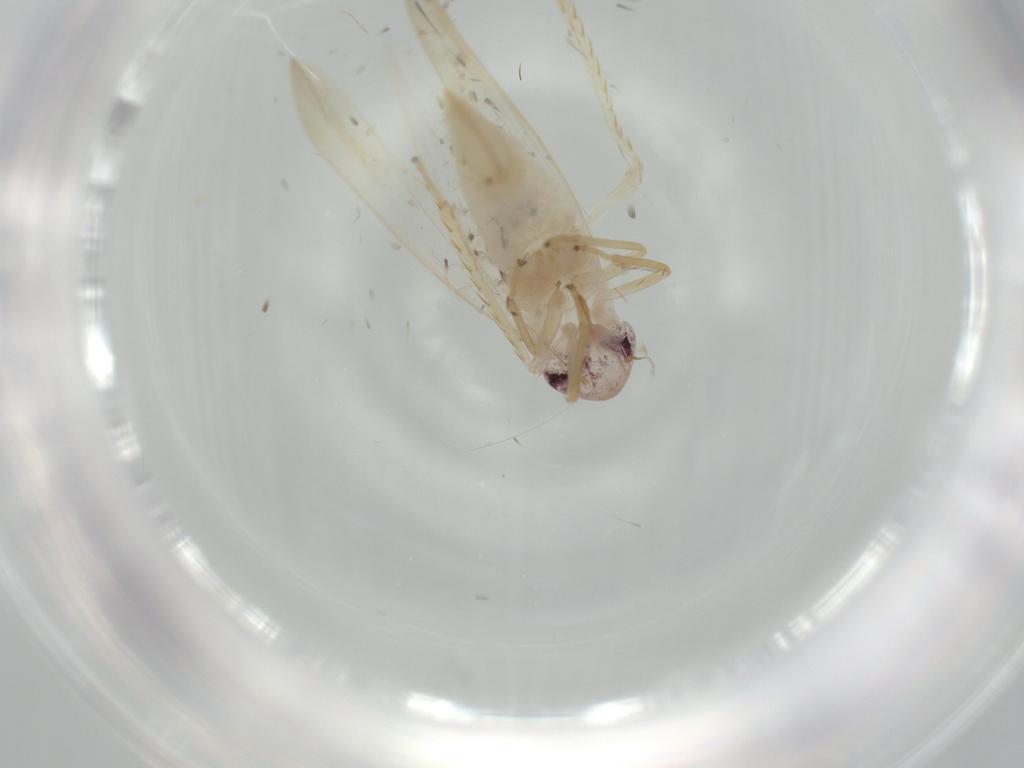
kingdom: Animalia
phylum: Arthropoda
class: Insecta
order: Hemiptera
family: Cicadellidae
